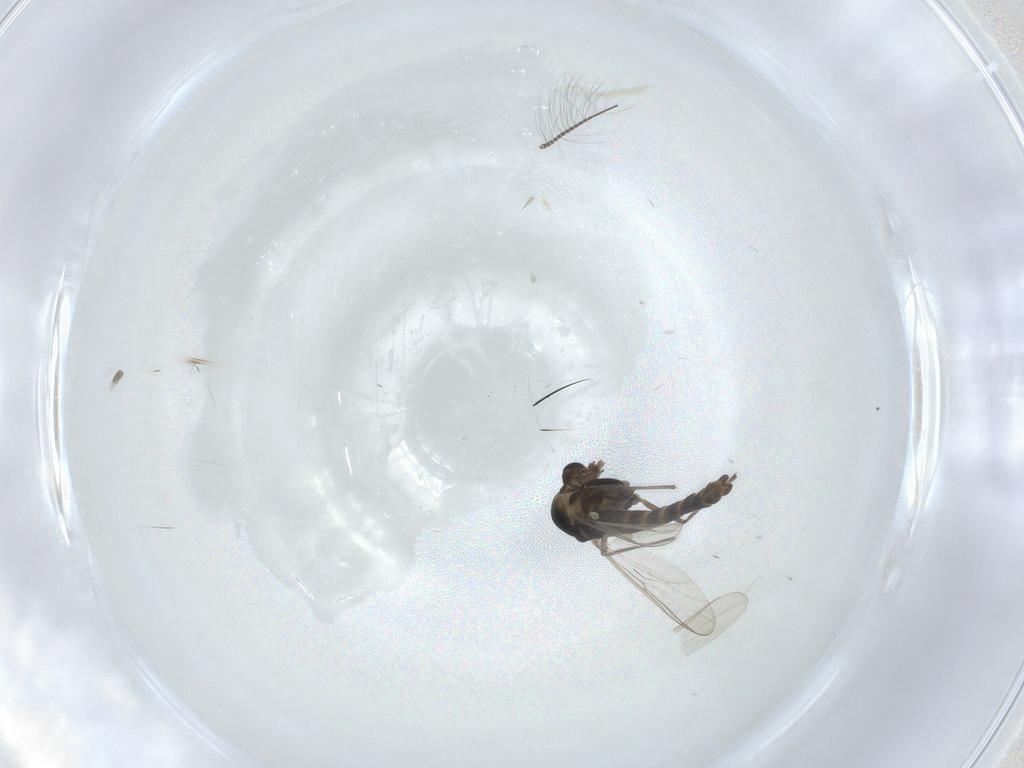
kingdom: Animalia
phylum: Arthropoda
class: Insecta
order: Diptera
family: Chironomidae
